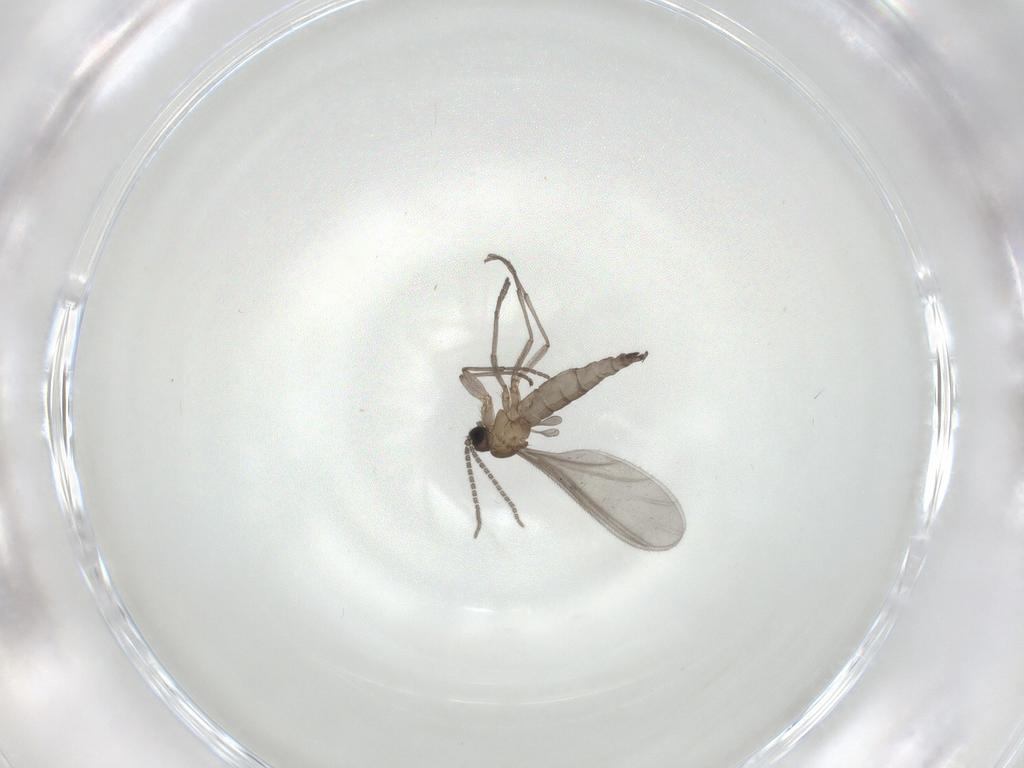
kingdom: Animalia
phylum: Arthropoda
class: Insecta
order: Diptera
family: Sciaridae
